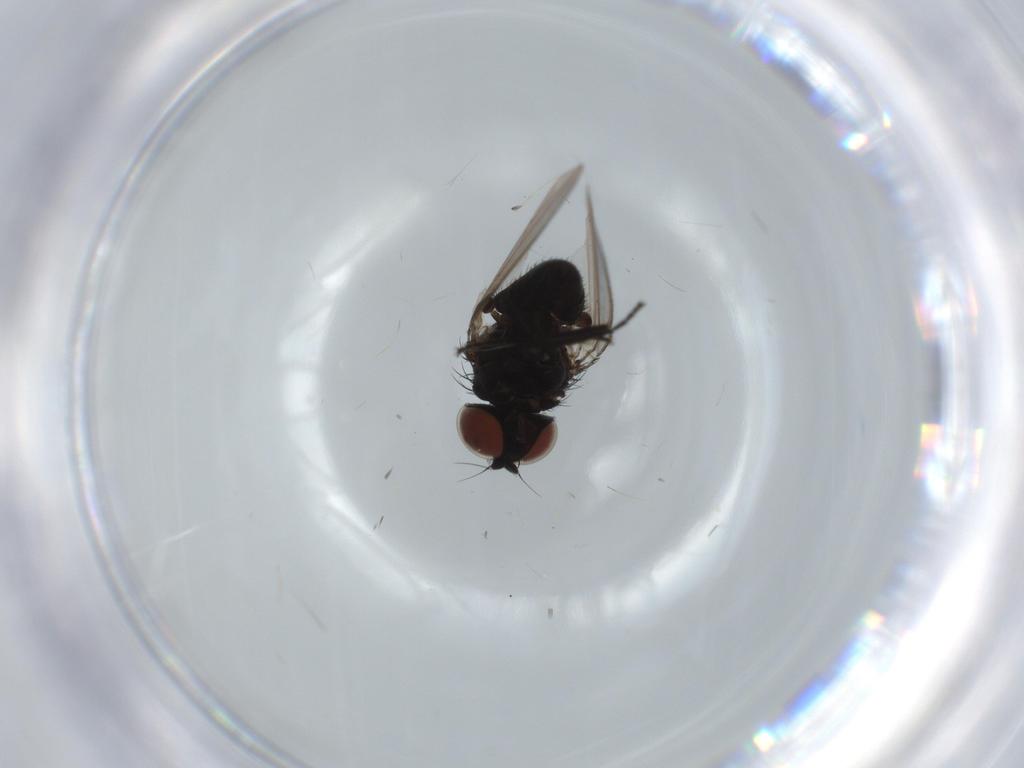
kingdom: Animalia
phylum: Arthropoda
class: Insecta
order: Diptera
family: Milichiidae
